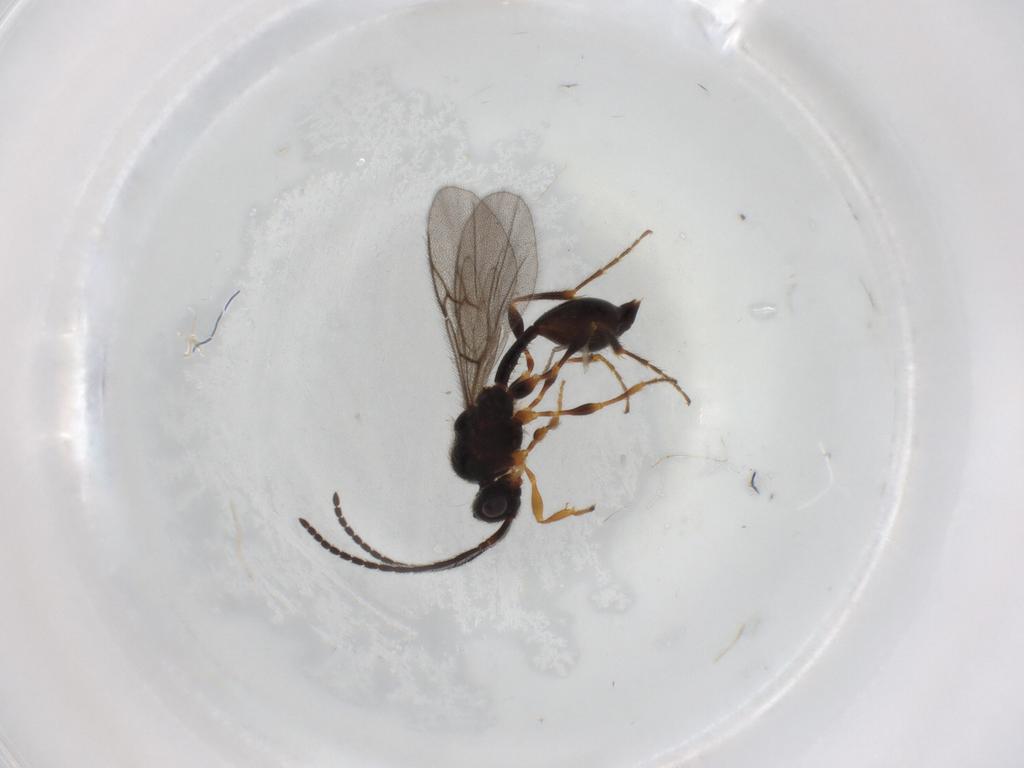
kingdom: Animalia
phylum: Arthropoda
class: Insecta
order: Hymenoptera
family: Diapriidae
